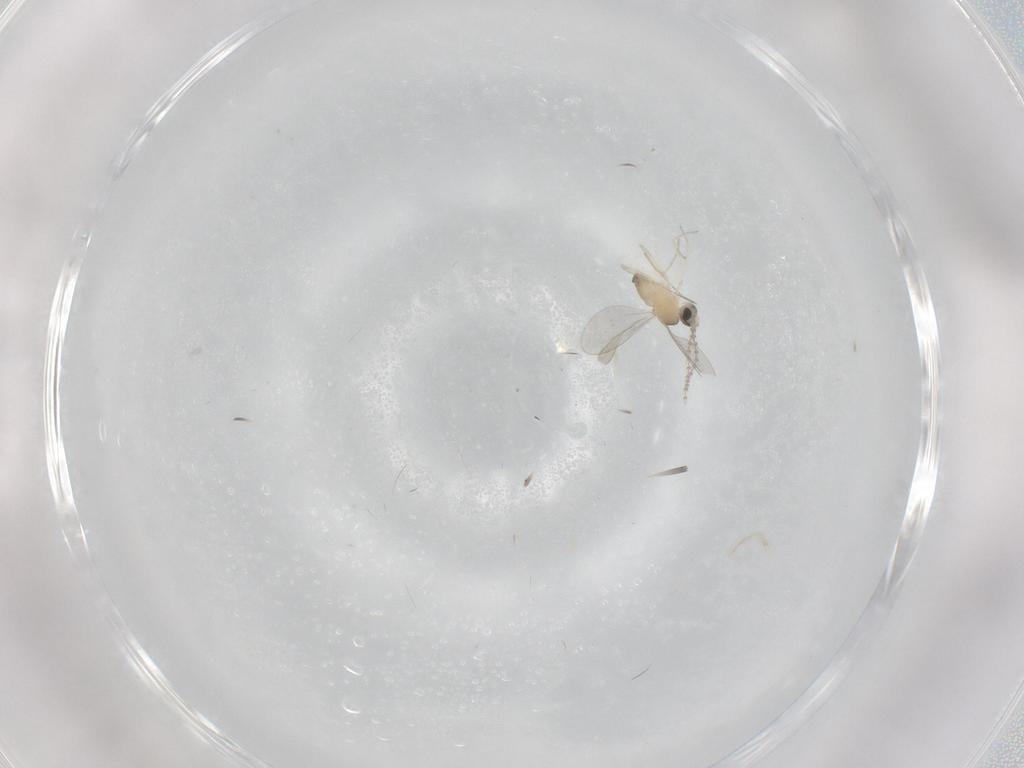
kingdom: Animalia
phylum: Arthropoda
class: Insecta
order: Diptera
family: Cecidomyiidae
